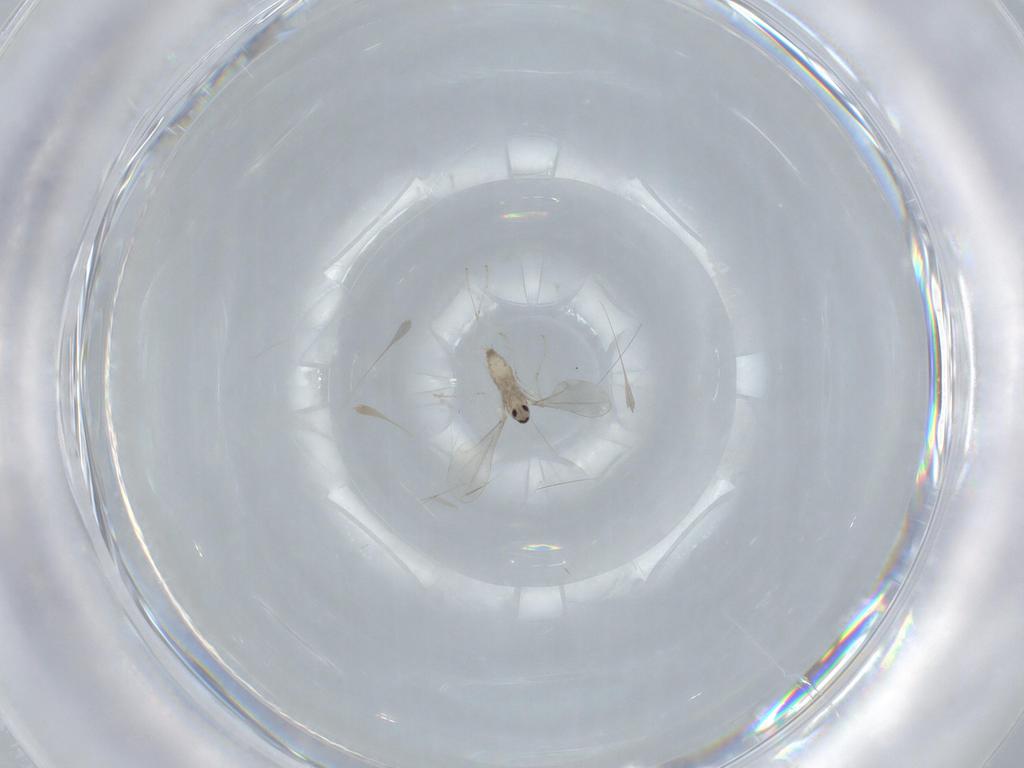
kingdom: Animalia
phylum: Arthropoda
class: Insecta
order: Diptera
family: Cecidomyiidae
